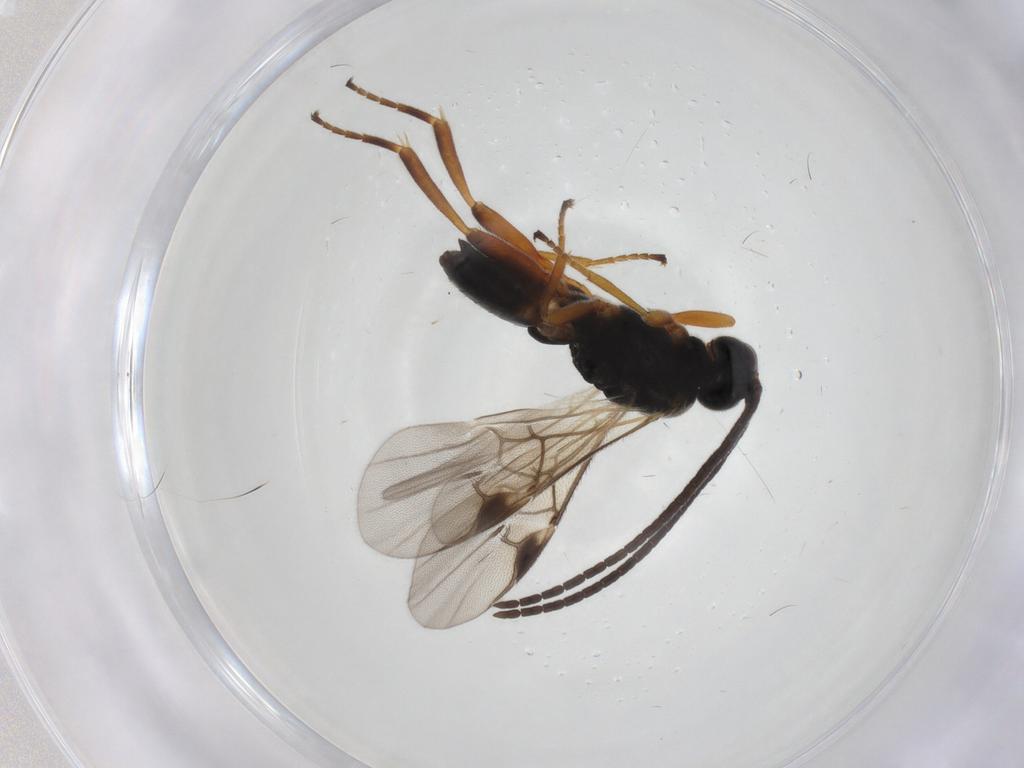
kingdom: Animalia
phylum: Arthropoda
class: Insecta
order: Hymenoptera
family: Braconidae
